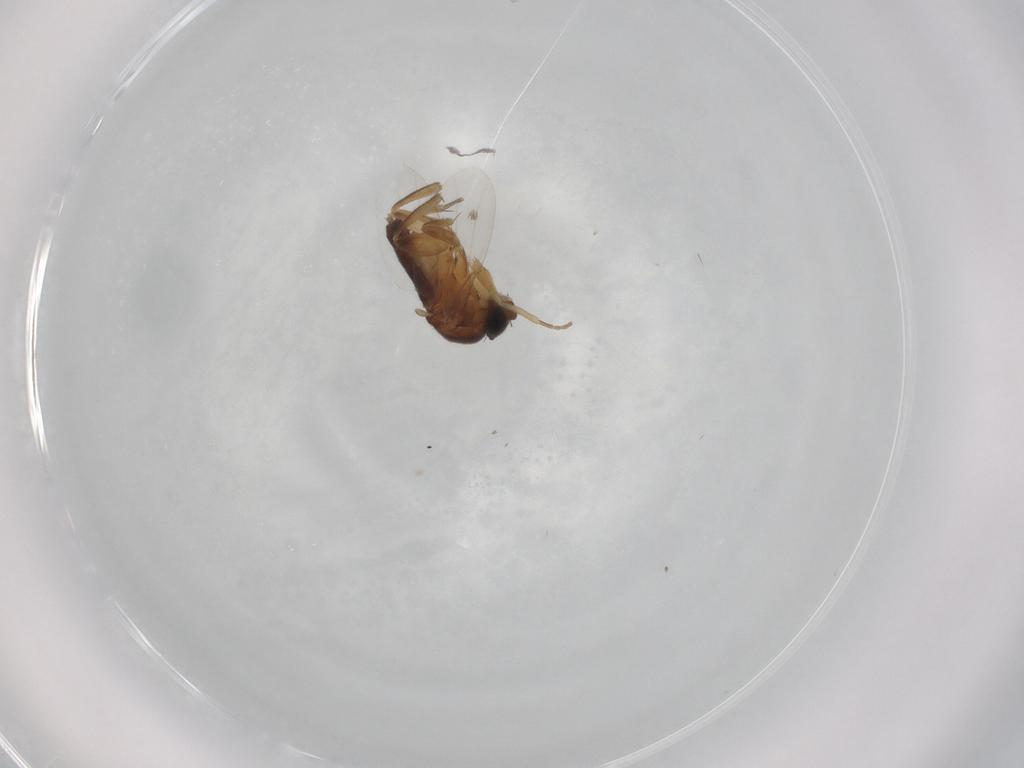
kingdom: Animalia
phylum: Arthropoda
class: Insecta
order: Diptera
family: Phoridae
